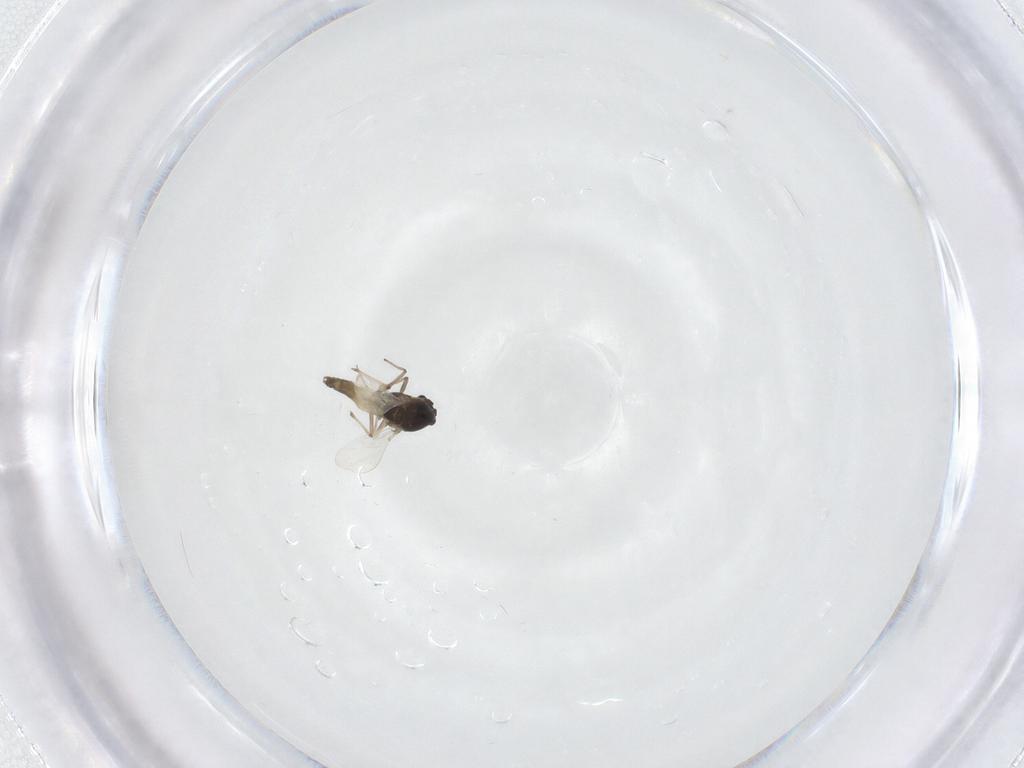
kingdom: Animalia
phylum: Arthropoda
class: Insecta
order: Diptera
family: Chironomidae
